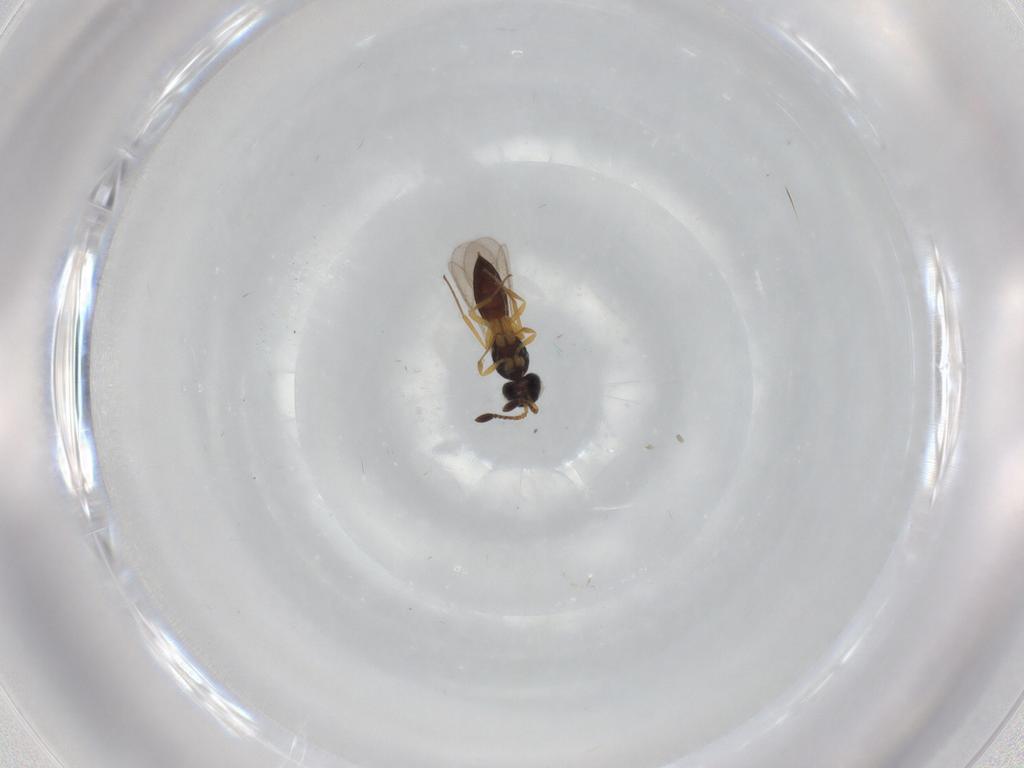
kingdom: Animalia
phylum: Arthropoda
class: Insecta
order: Hymenoptera
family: Scelionidae
